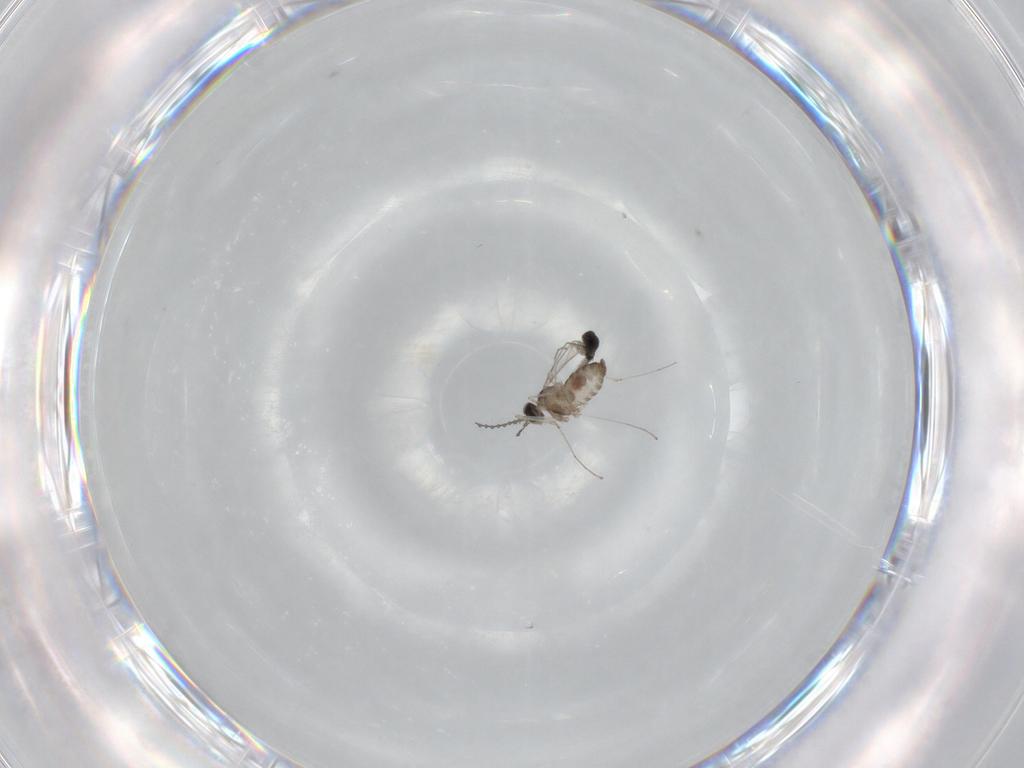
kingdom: Animalia
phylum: Arthropoda
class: Insecta
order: Diptera
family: Cecidomyiidae
